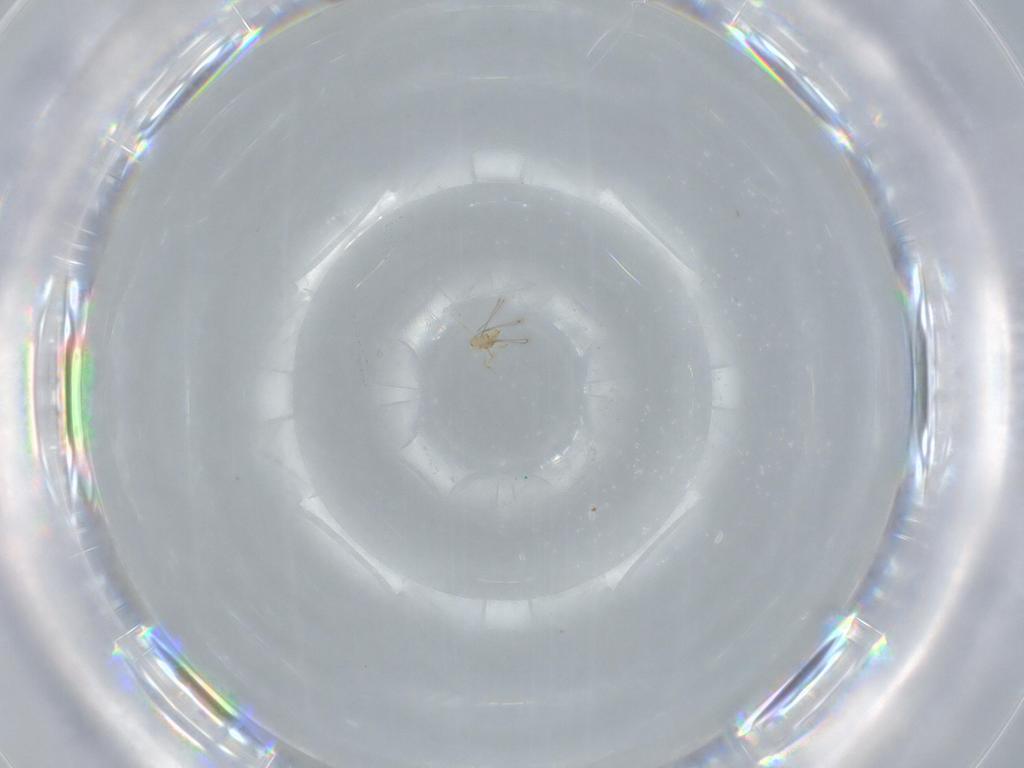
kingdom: Animalia
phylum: Arthropoda
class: Insecta
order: Hymenoptera
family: Mymaridae
